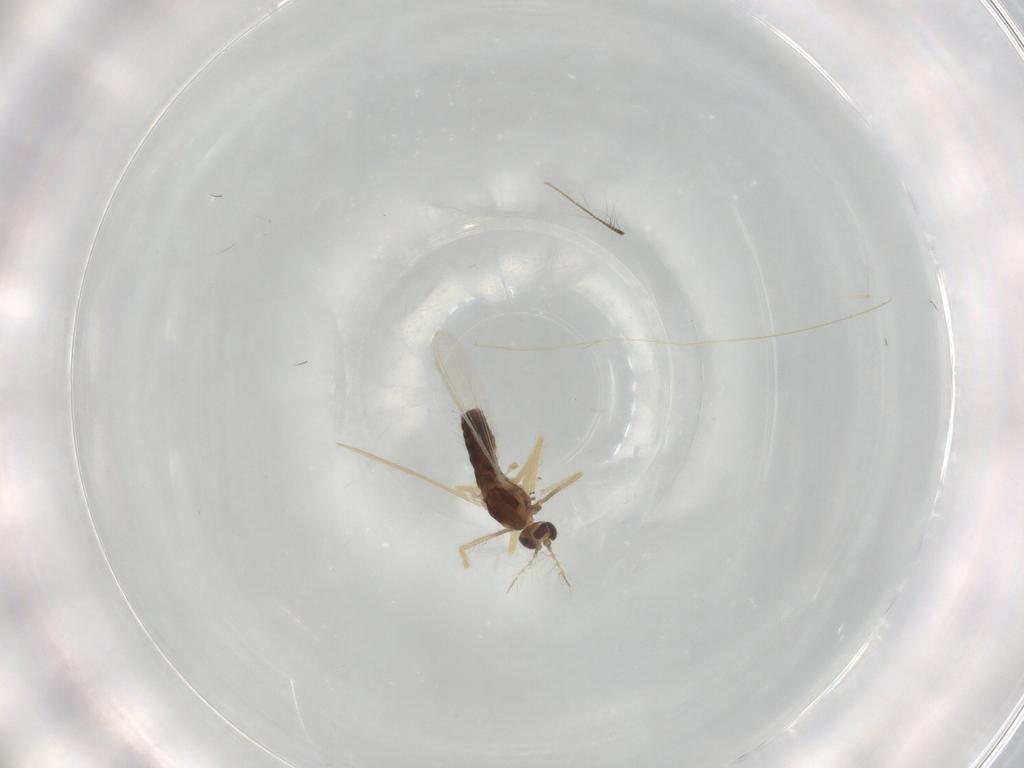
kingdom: Animalia
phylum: Arthropoda
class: Insecta
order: Diptera
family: Chironomidae
